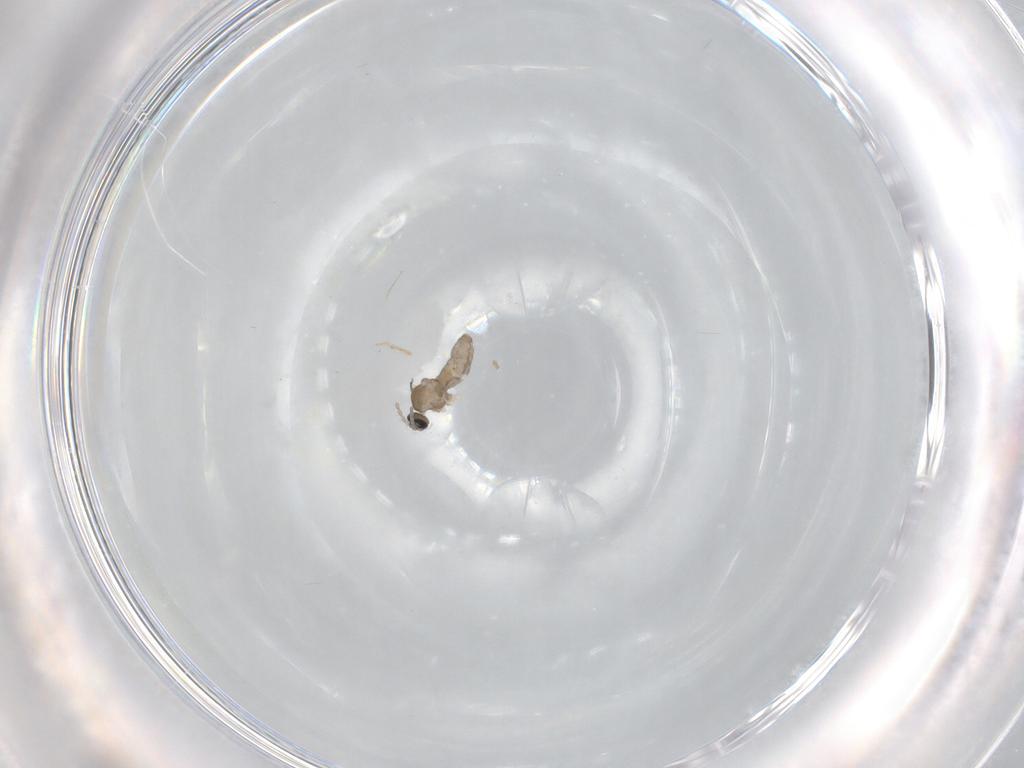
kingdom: Animalia
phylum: Arthropoda
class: Insecta
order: Diptera
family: Cecidomyiidae
